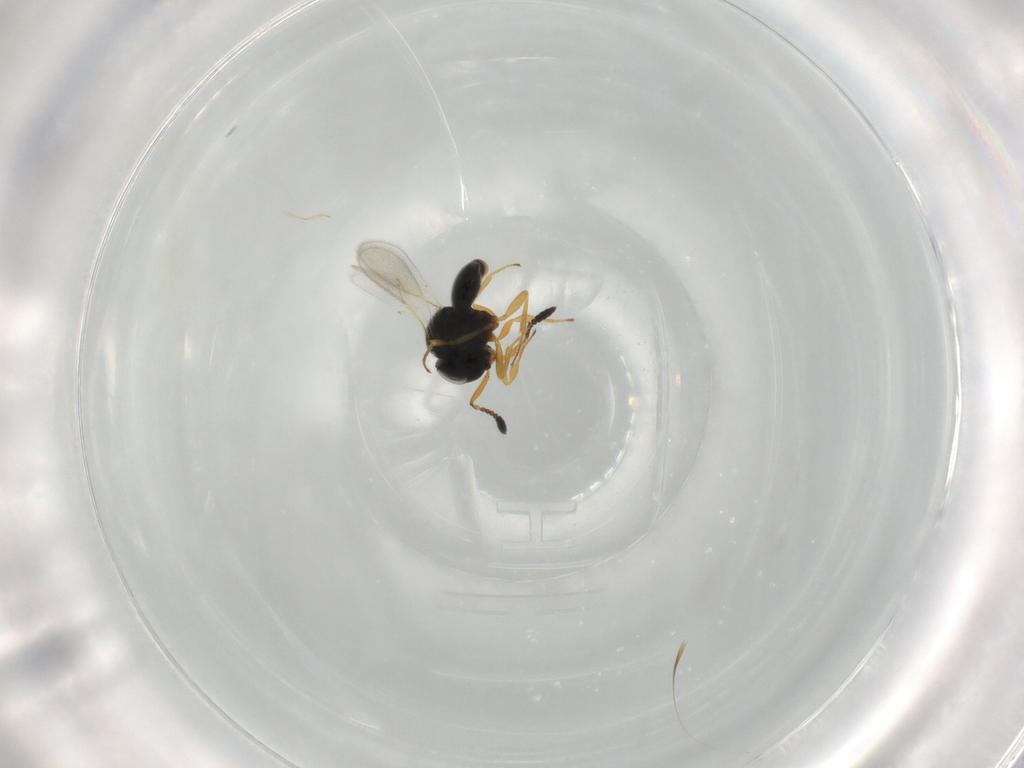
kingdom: Animalia
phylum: Arthropoda
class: Insecta
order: Hymenoptera
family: Scelionidae
